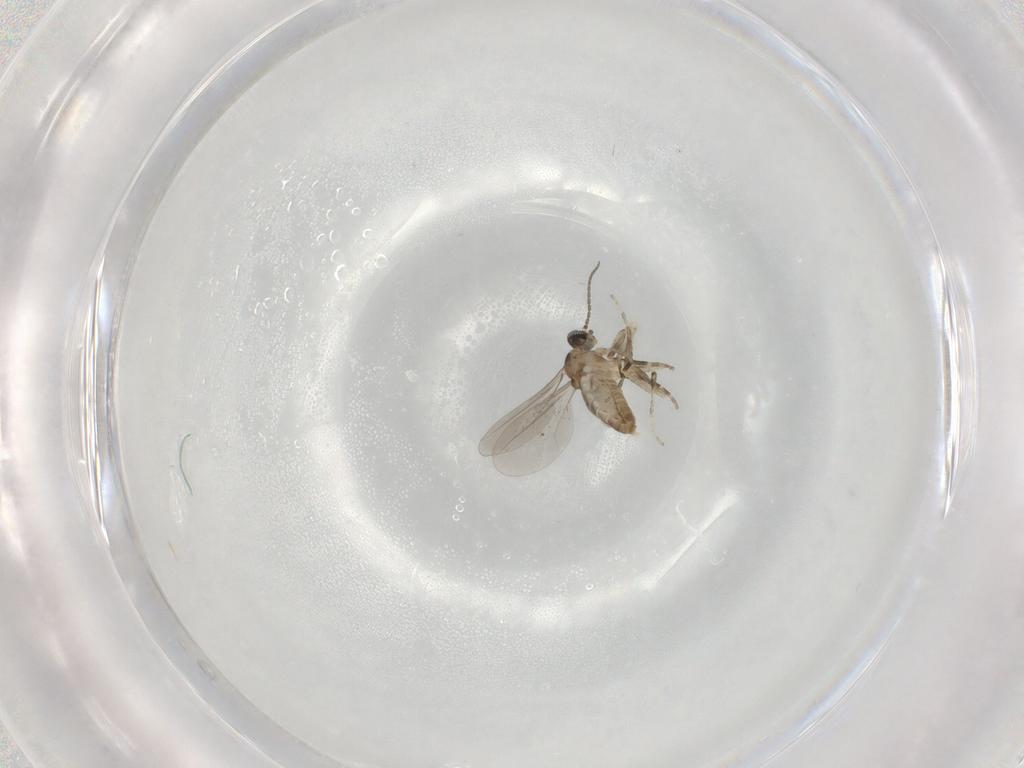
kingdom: Animalia
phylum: Arthropoda
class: Insecta
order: Diptera
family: Cecidomyiidae
